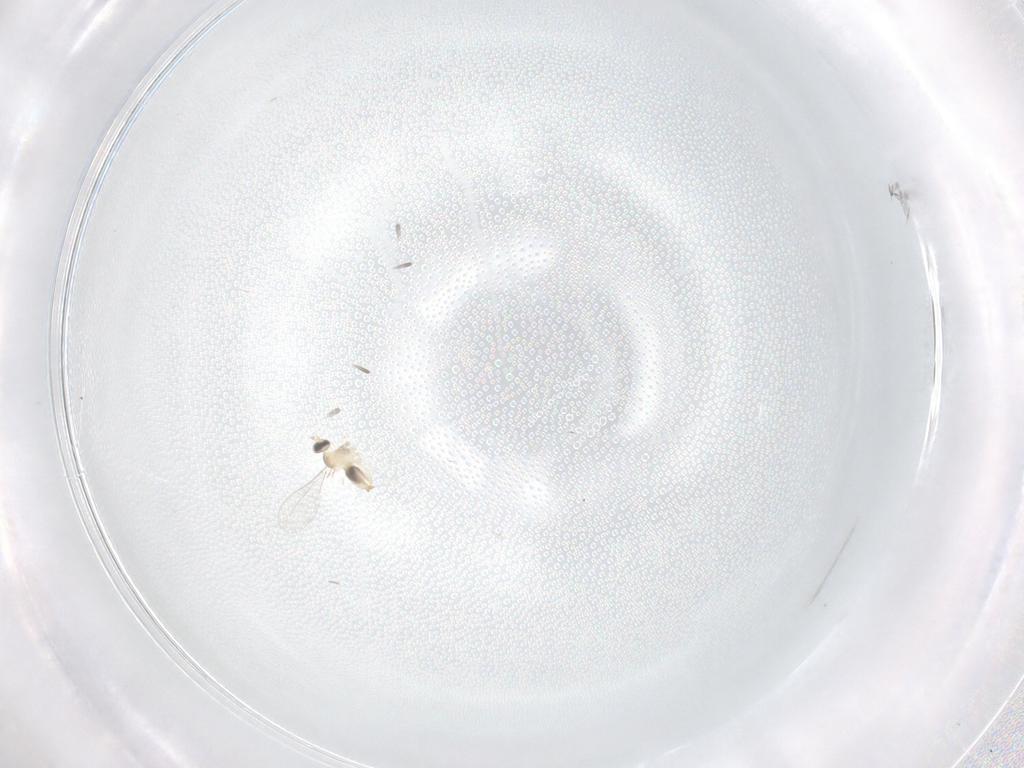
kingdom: Animalia
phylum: Arthropoda
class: Insecta
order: Diptera
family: Cecidomyiidae
